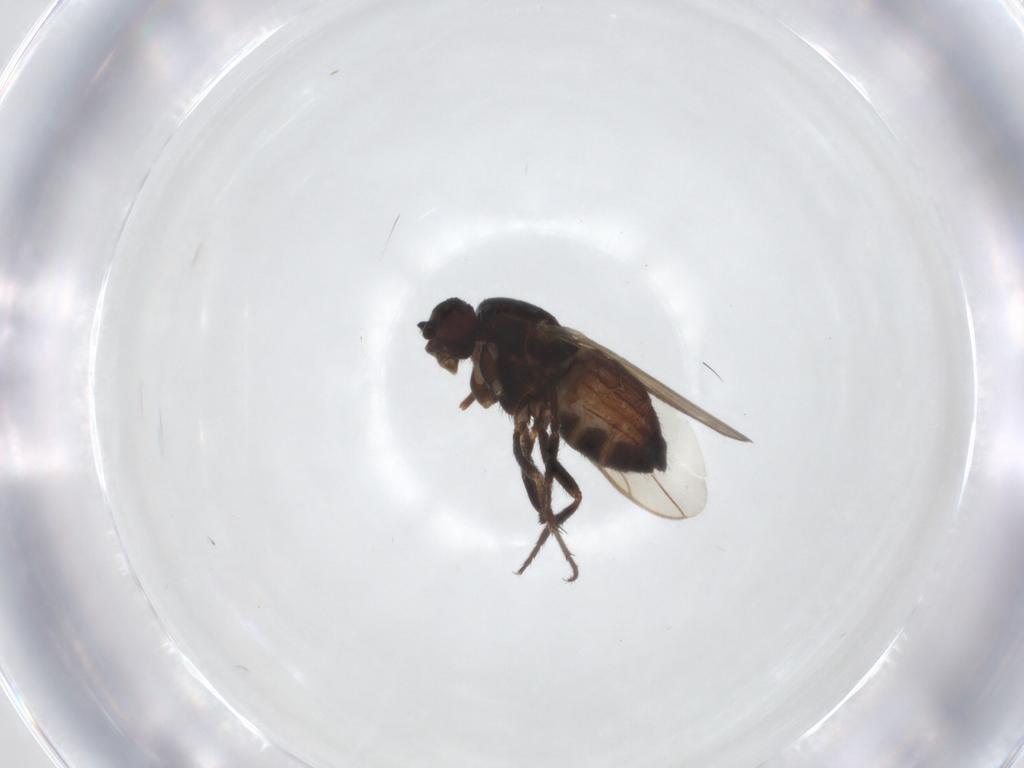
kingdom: Animalia
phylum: Arthropoda
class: Insecta
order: Diptera
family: Sphaeroceridae
